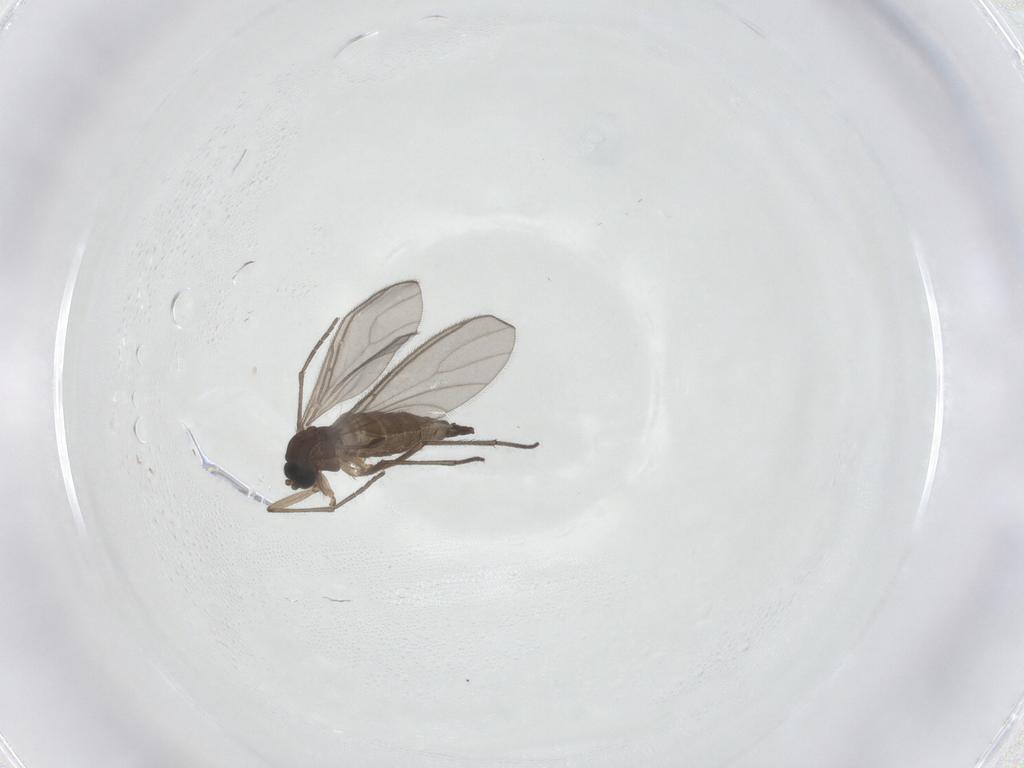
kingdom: Animalia
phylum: Arthropoda
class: Insecta
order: Diptera
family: Sciaridae
